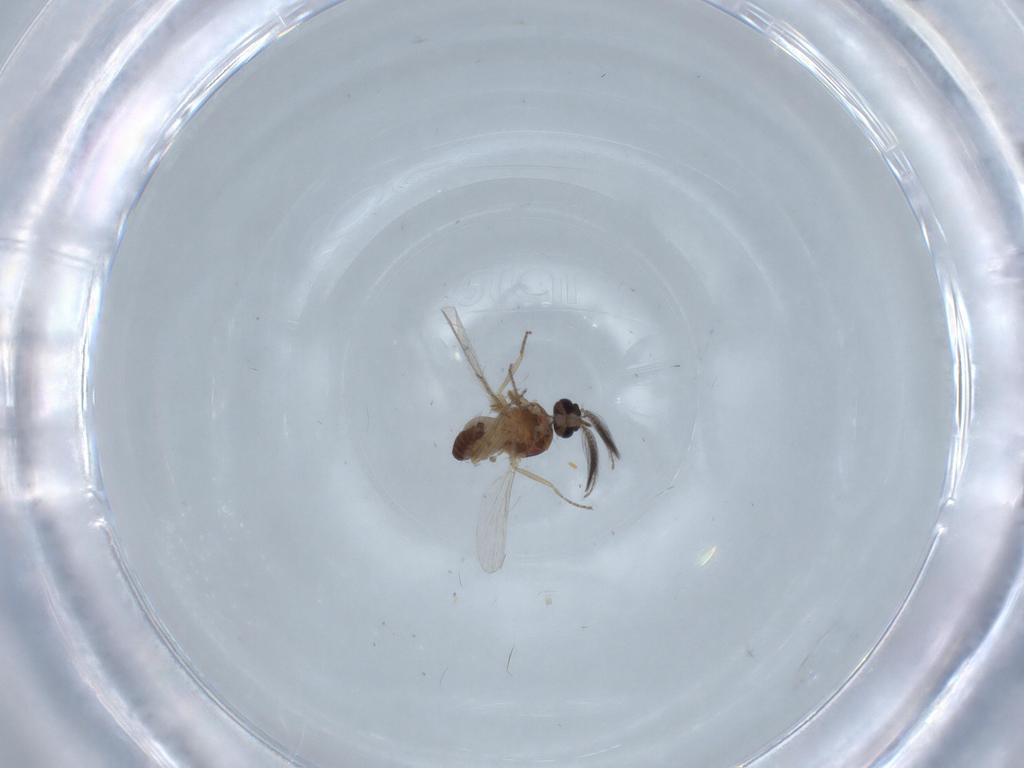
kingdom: Animalia
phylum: Arthropoda
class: Insecta
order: Diptera
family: Ceratopogonidae
